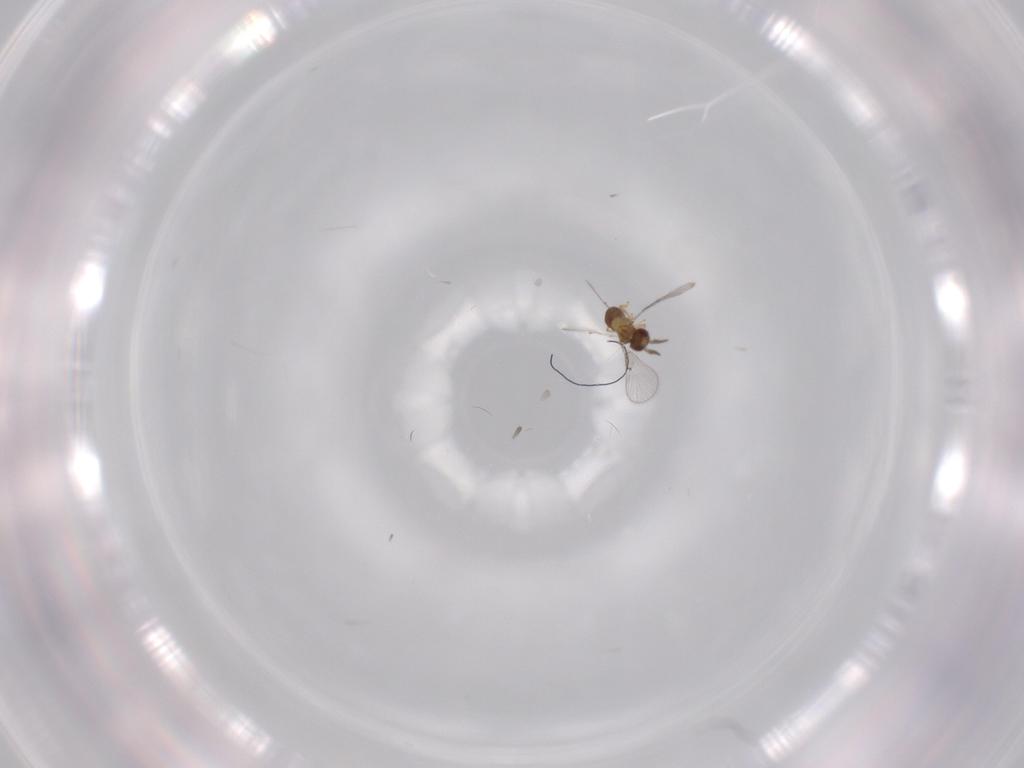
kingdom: Animalia
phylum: Arthropoda
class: Insecta
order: Hymenoptera
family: Trichogrammatidae
